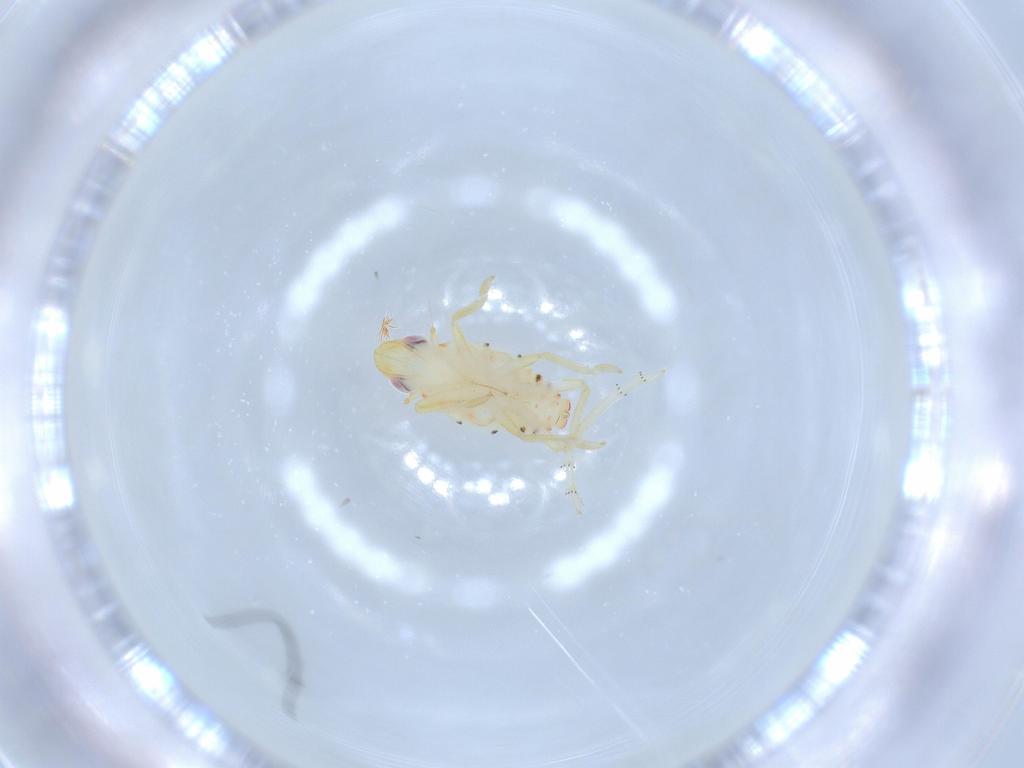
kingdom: Animalia
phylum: Arthropoda
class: Insecta
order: Hemiptera
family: Tropiduchidae
